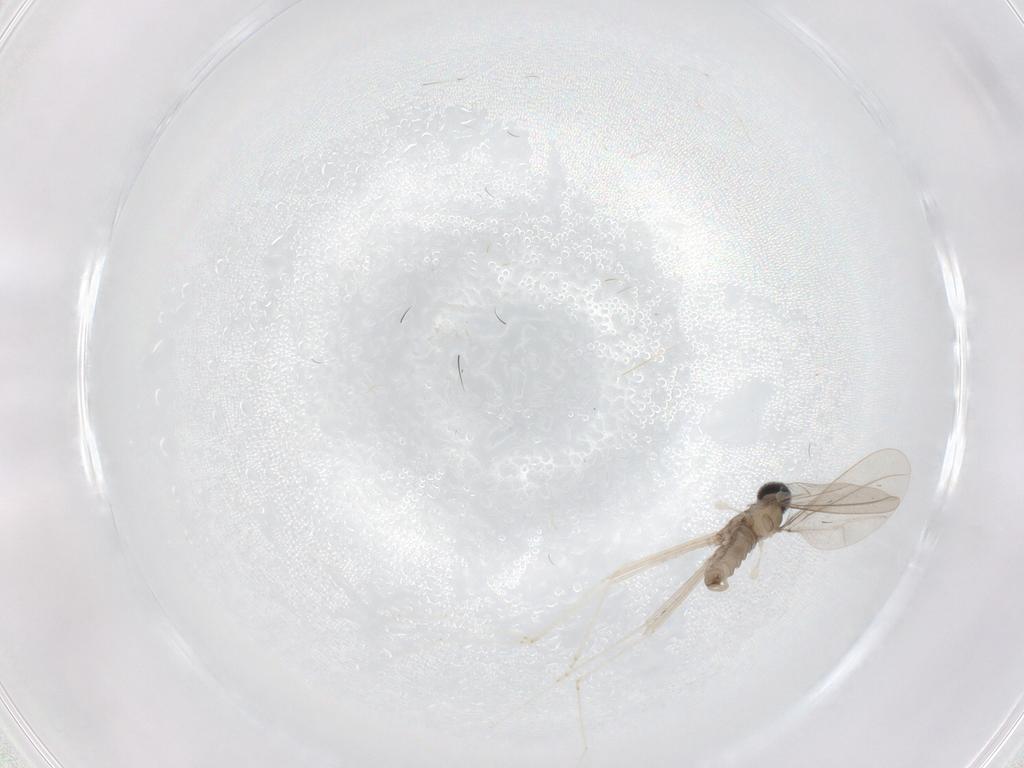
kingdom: Animalia
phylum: Arthropoda
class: Insecta
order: Diptera
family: Cecidomyiidae
